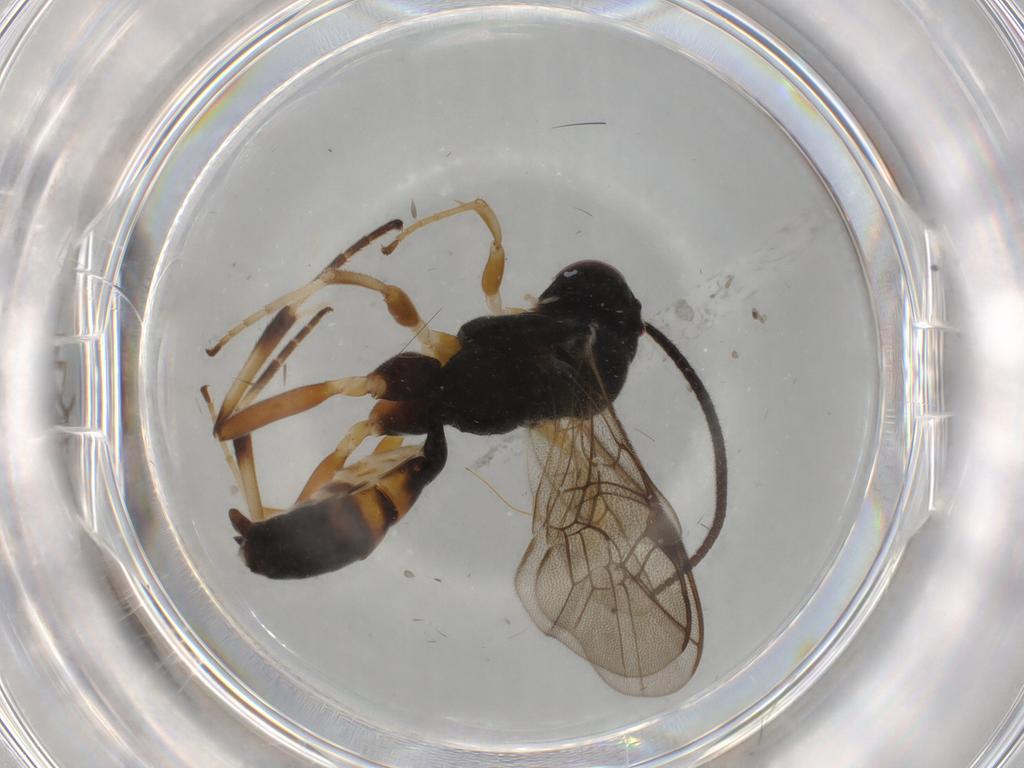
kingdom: Animalia
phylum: Arthropoda
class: Insecta
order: Hymenoptera
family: Ichneumonidae
